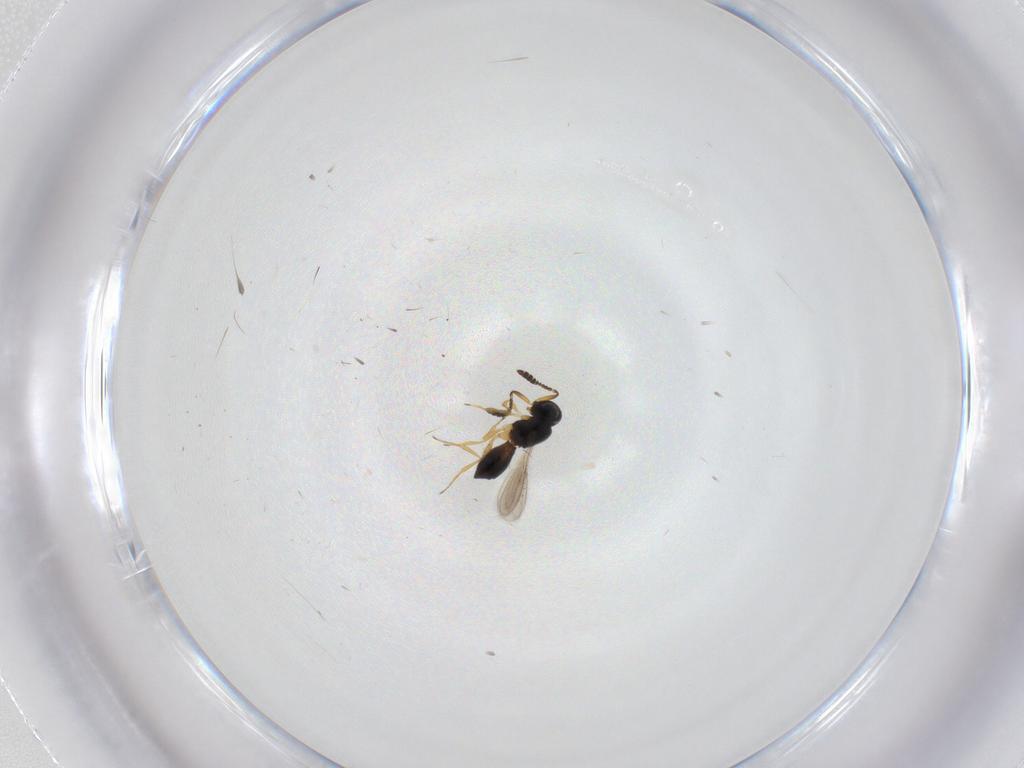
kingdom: Animalia
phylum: Arthropoda
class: Insecta
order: Hymenoptera
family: Scelionidae
